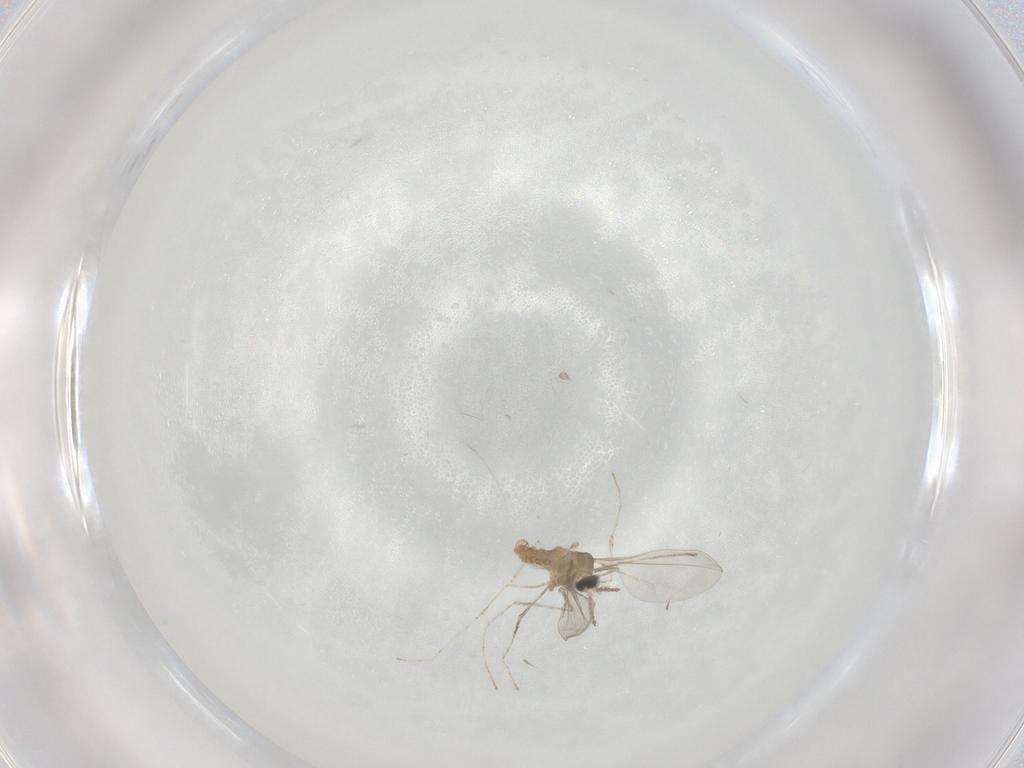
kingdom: Animalia
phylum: Arthropoda
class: Insecta
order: Diptera
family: Cecidomyiidae
